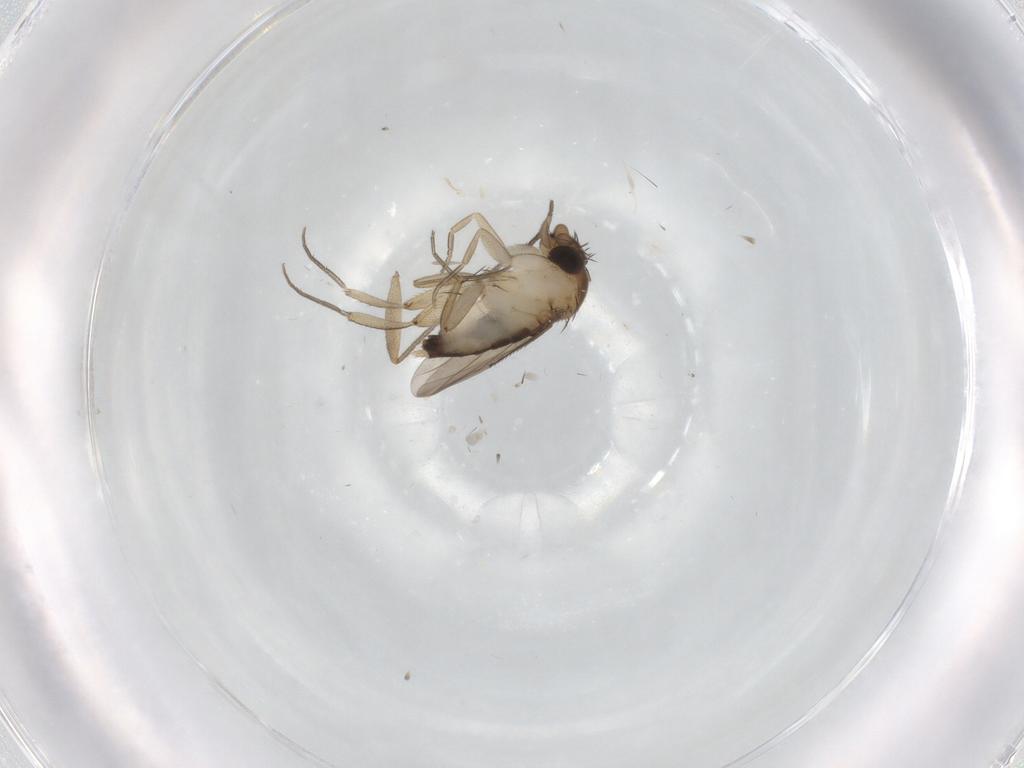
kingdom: Animalia
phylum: Arthropoda
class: Insecta
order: Diptera
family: Phoridae
